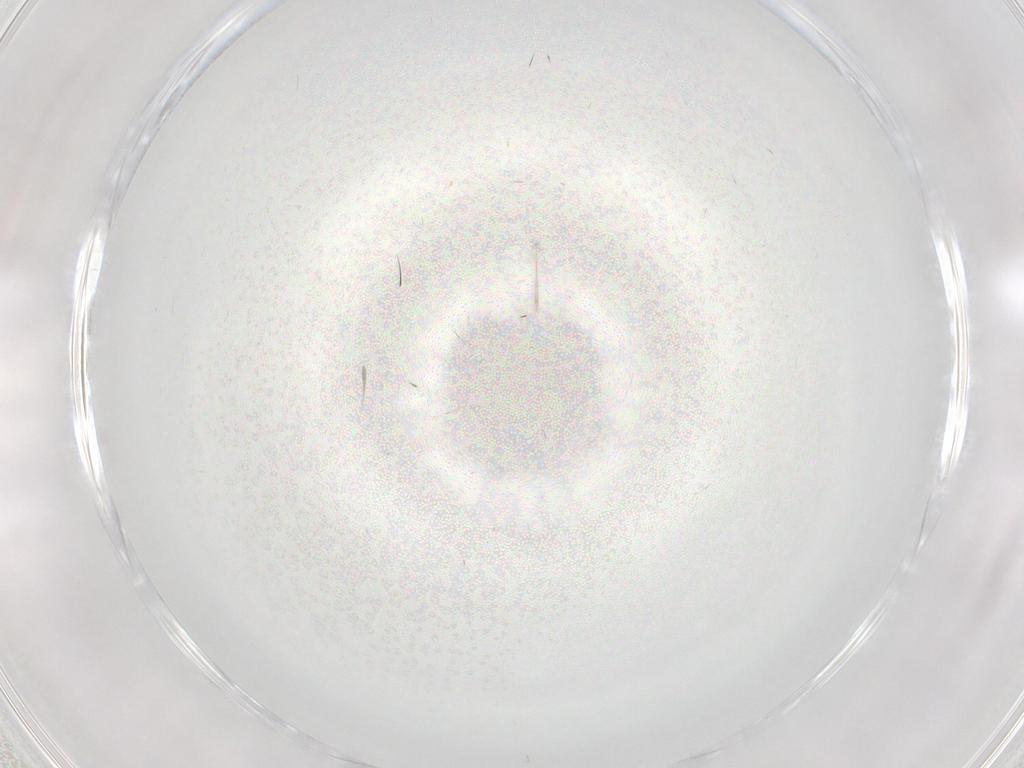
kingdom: Animalia
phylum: Arthropoda
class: Insecta
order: Diptera
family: Cecidomyiidae
